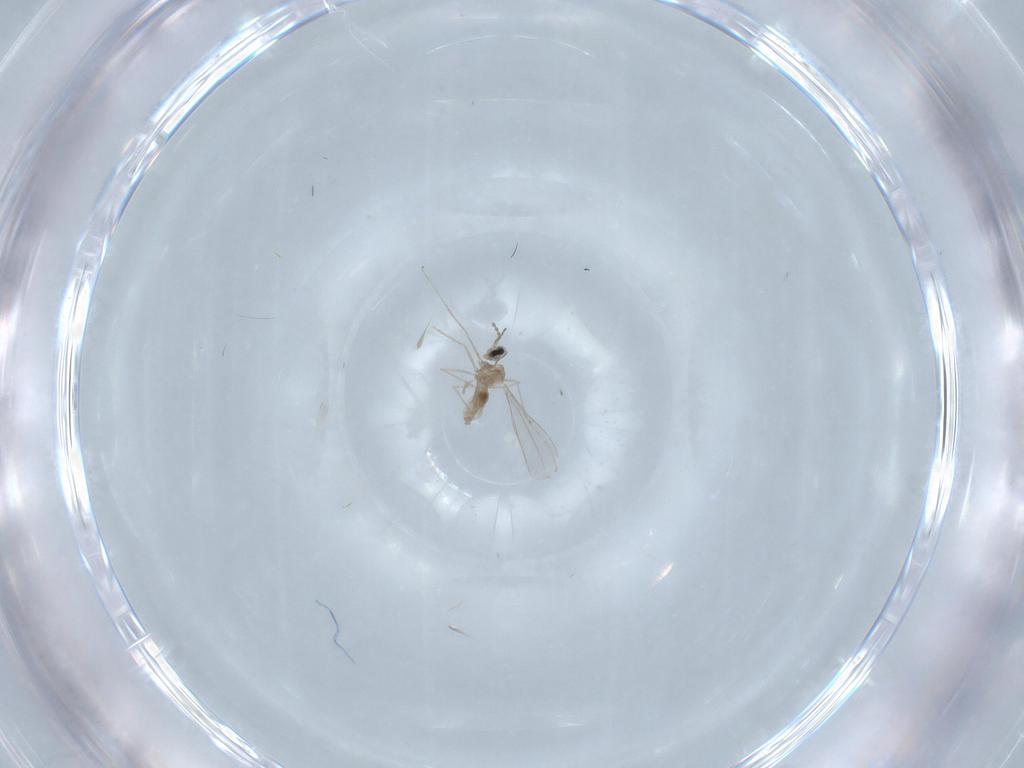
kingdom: Animalia
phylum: Arthropoda
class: Insecta
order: Diptera
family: Cecidomyiidae
